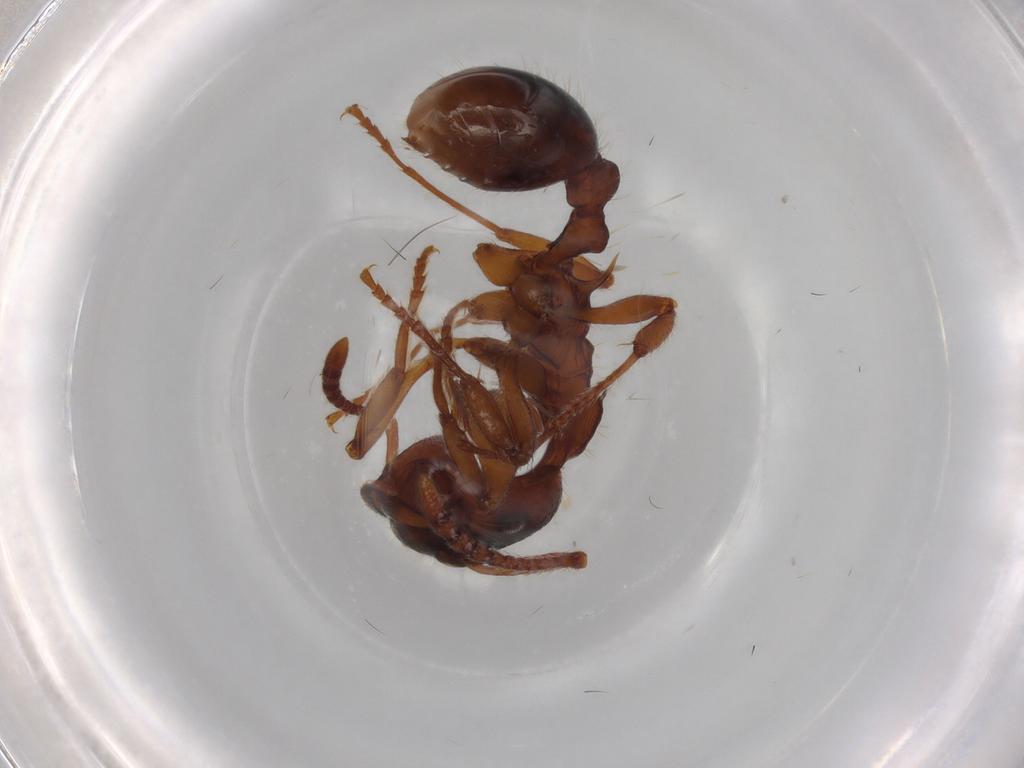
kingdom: Animalia
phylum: Arthropoda
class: Insecta
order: Hymenoptera
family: Formicidae
